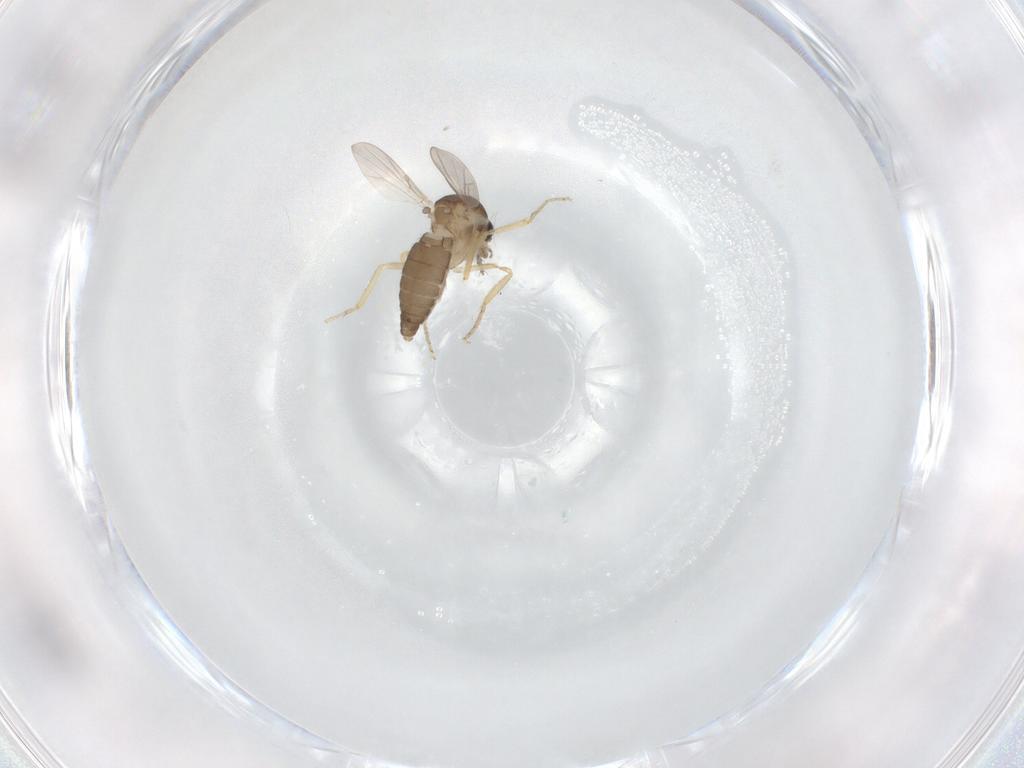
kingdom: Animalia
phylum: Arthropoda
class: Insecta
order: Diptera
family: Ceratopogonidae
